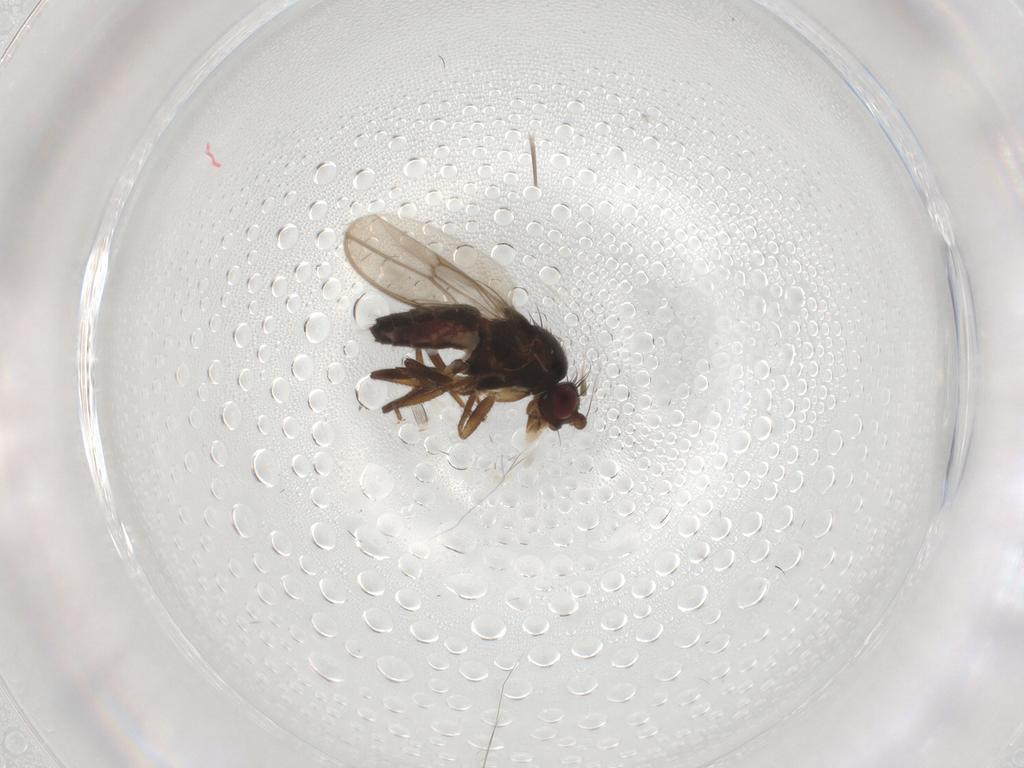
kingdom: Animalia
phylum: Arthropoda
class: Insecta
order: Diptera
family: Sphaeroceridae
